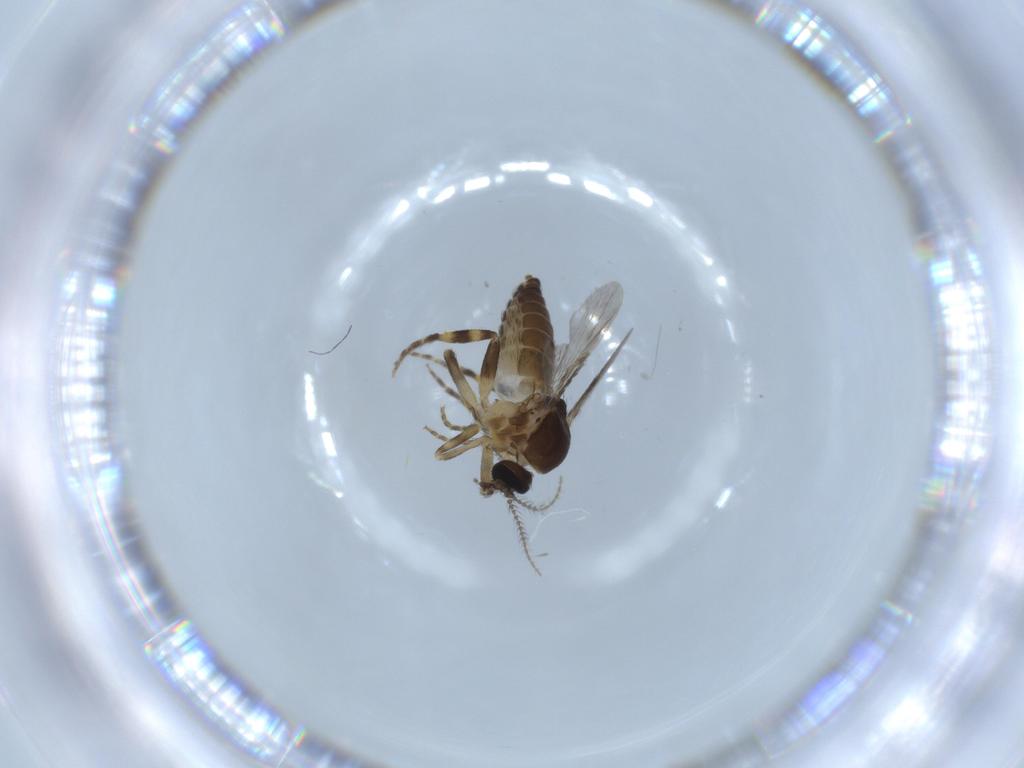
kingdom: Animalia
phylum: Arthropoda
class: Insecta
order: Diptera
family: Ceratopogonidae
